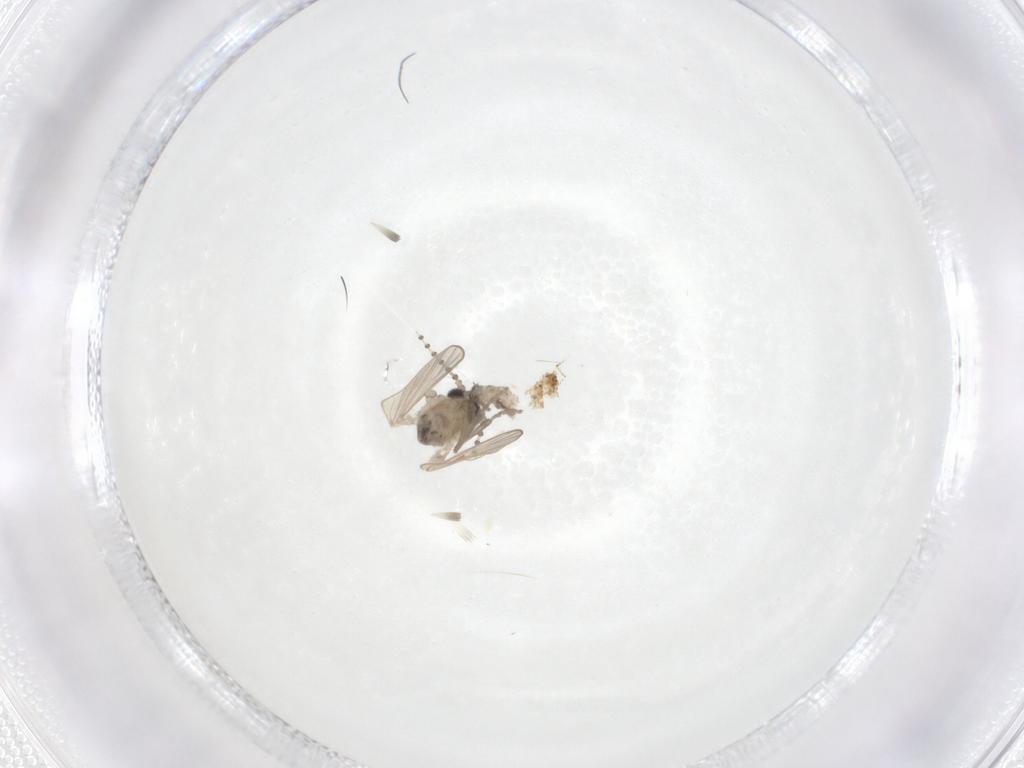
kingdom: Animalia
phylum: Arthropoda
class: Insecta
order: Diptera
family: Psychodidae
